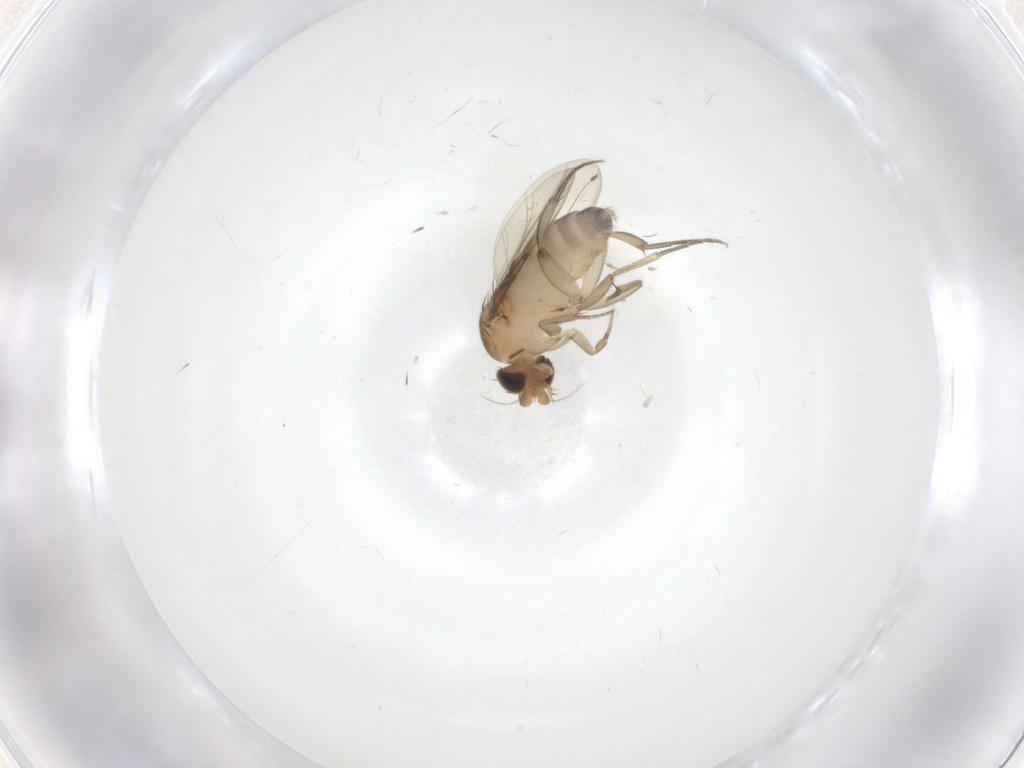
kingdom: Animalia
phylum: Arthropoda
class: Insecta
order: Diptera
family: Phoridae
